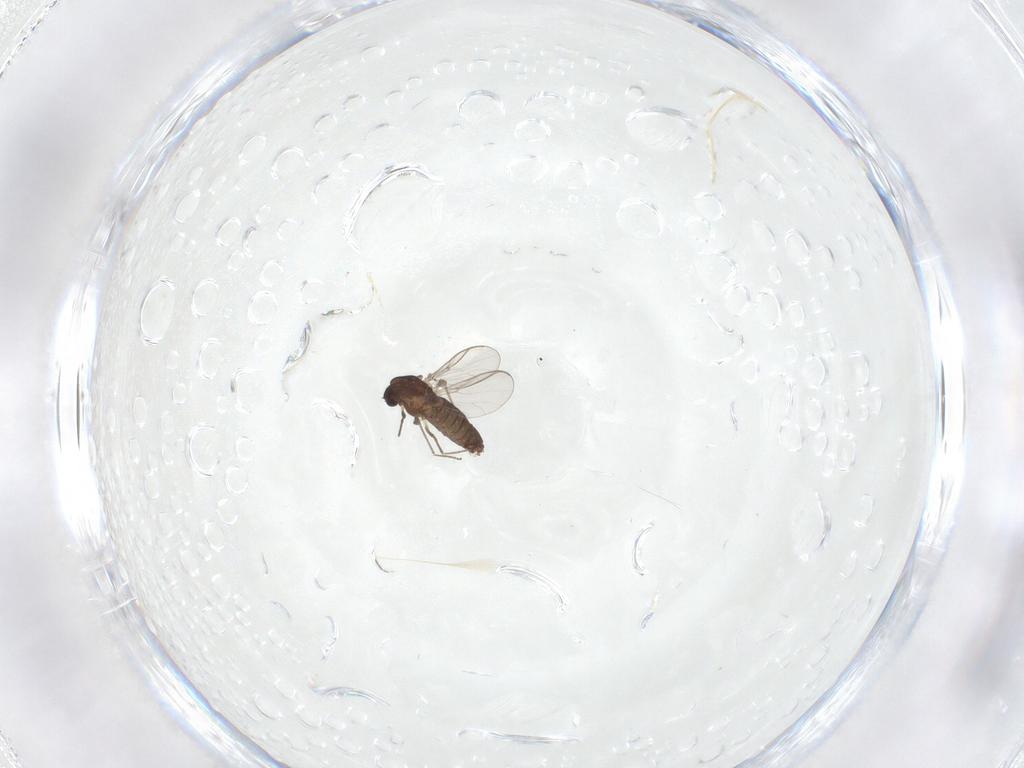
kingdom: Animalia
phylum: Arthropoda
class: Insecta
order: Diptera
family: Chironomidae
